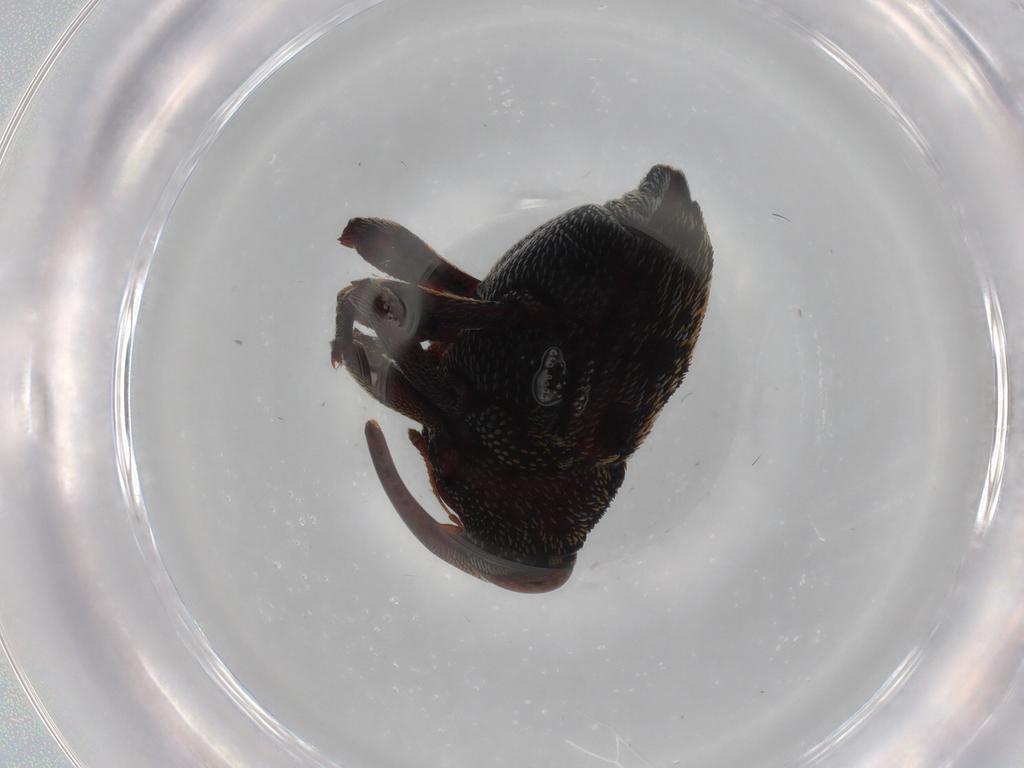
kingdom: Animalia
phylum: Arthropoda
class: Insecta
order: Coleoptera
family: Curculionidae
